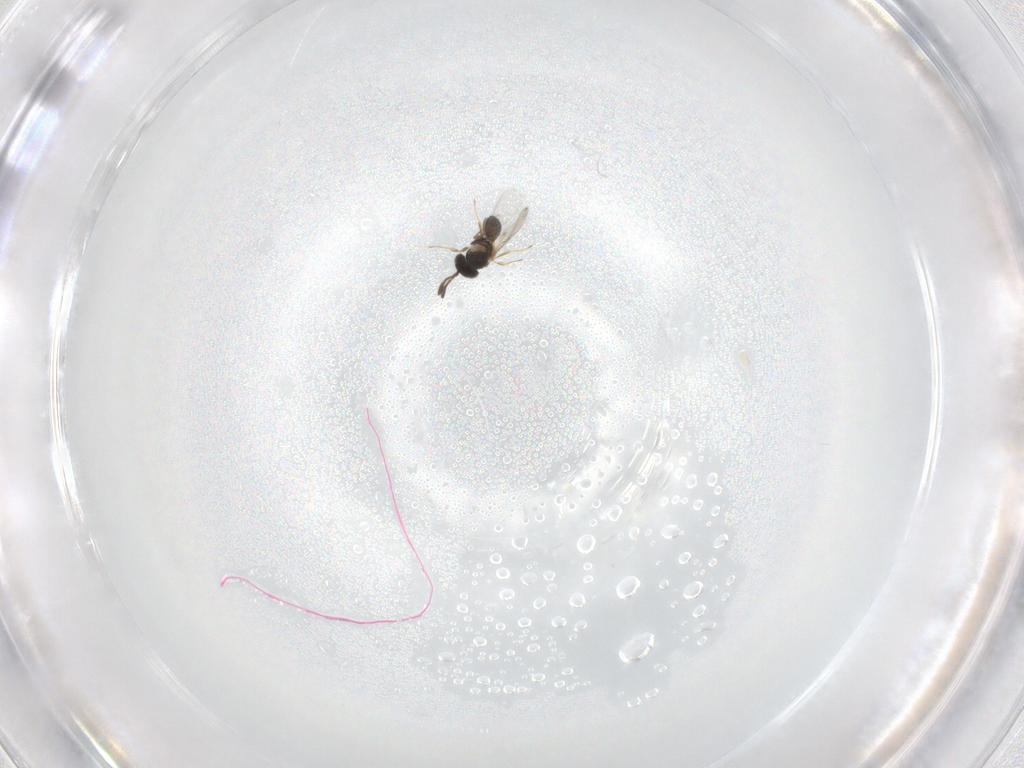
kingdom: Animalia
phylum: Arthropoda
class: Insecta
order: Hymenoptera
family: Scelionidae
